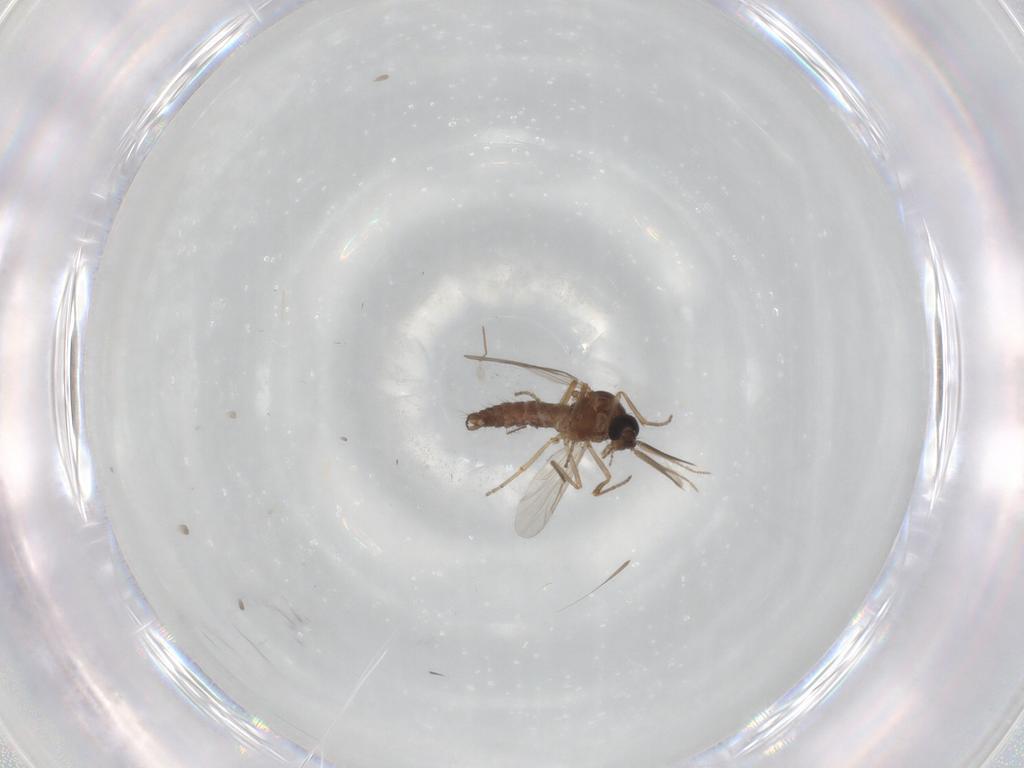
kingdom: Animalia
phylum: Arthropoda
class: Insecta
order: Diptera
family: Ceratopogonidae
